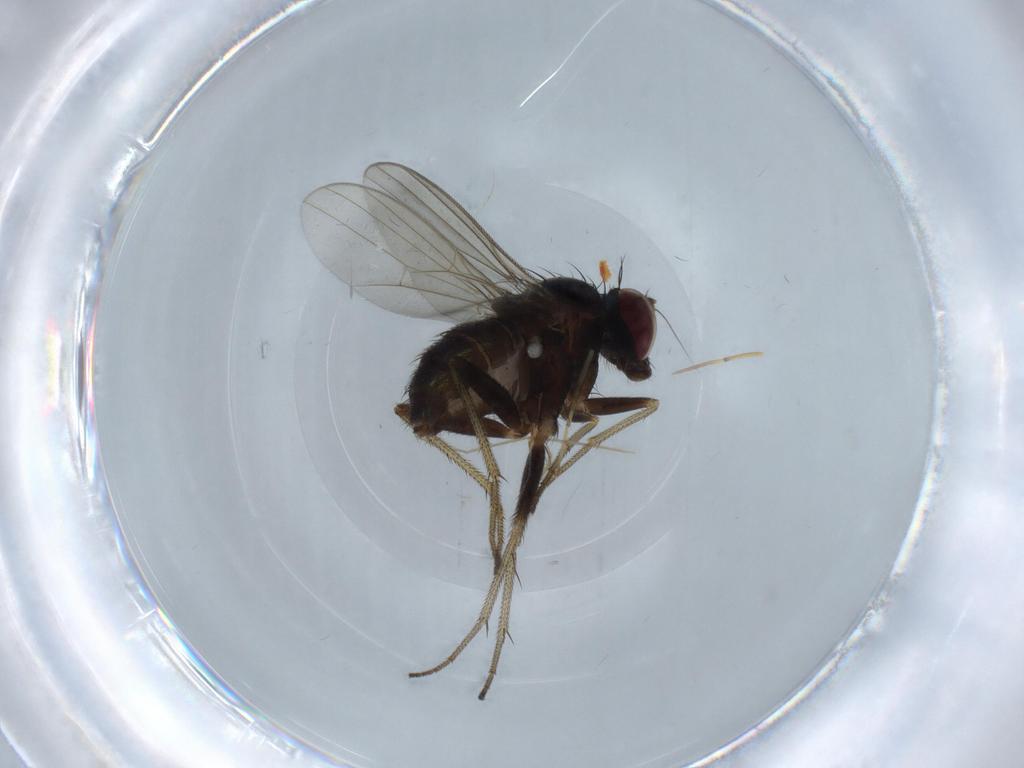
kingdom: Animalia
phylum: Arthropoda
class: Insecta
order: Diptera
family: Dolichopodidae
